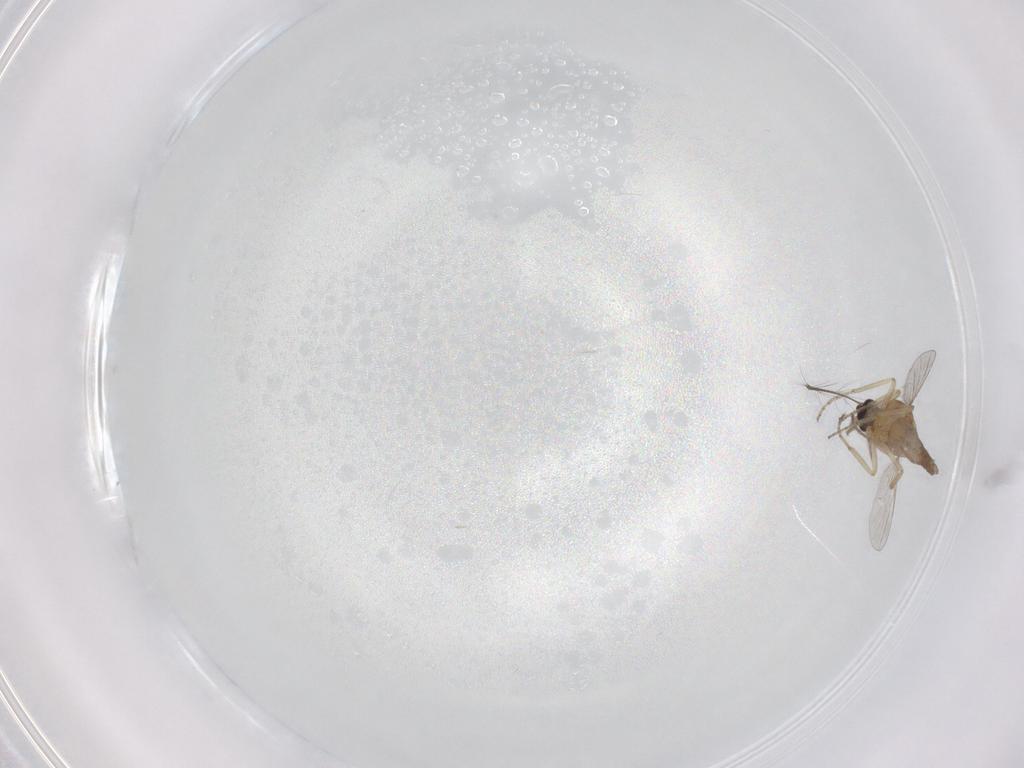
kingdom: Animalia
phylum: Arthropoda
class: Insecta
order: Diptera
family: Chironomidae
